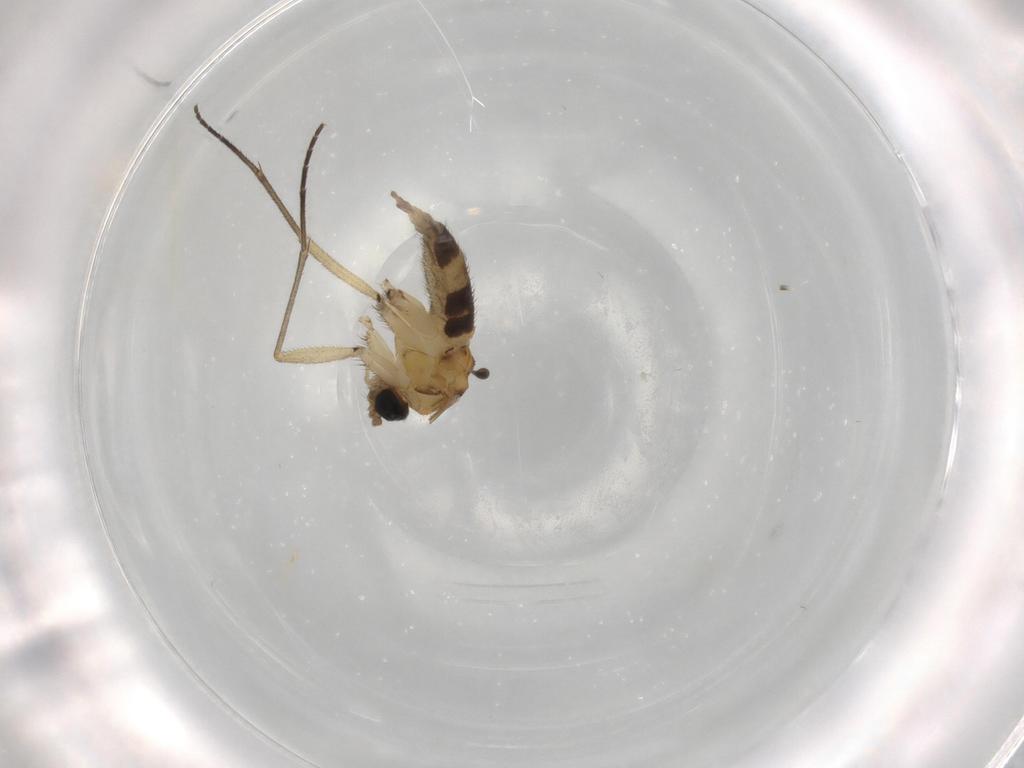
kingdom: Animalia
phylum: Arthropoda
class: Insecta
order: Diptera
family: Sciaridae
